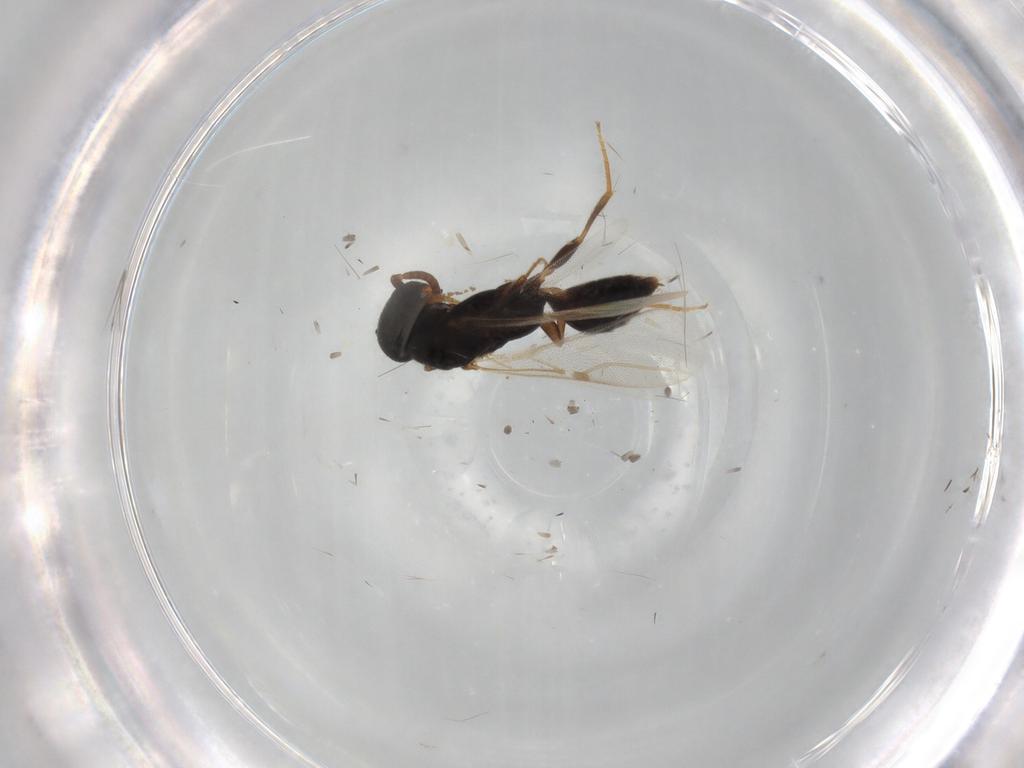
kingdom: Animalia
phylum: Arthropoda
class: Insecta
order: Hymenoptera
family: Bethylidae
